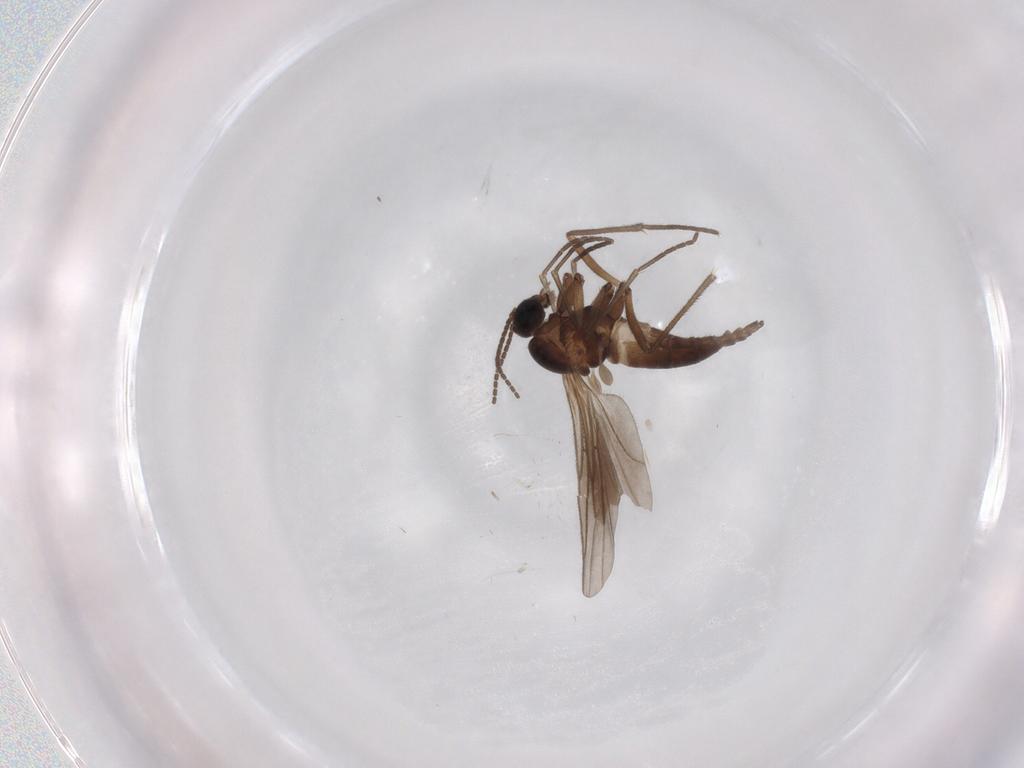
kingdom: Animalia
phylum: Arthropoda
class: Insecta
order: Diptera
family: Sciaridae
